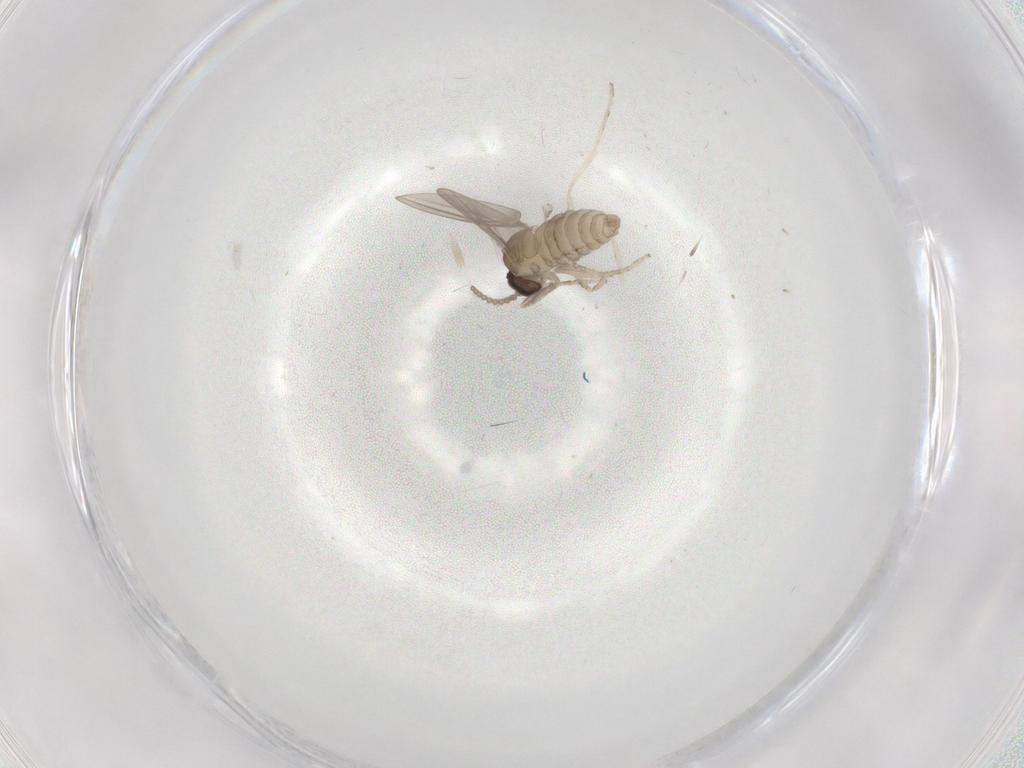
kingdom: Animalia
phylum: Arthropoda
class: Insecta
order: Diptera
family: Cecidomyiidae
